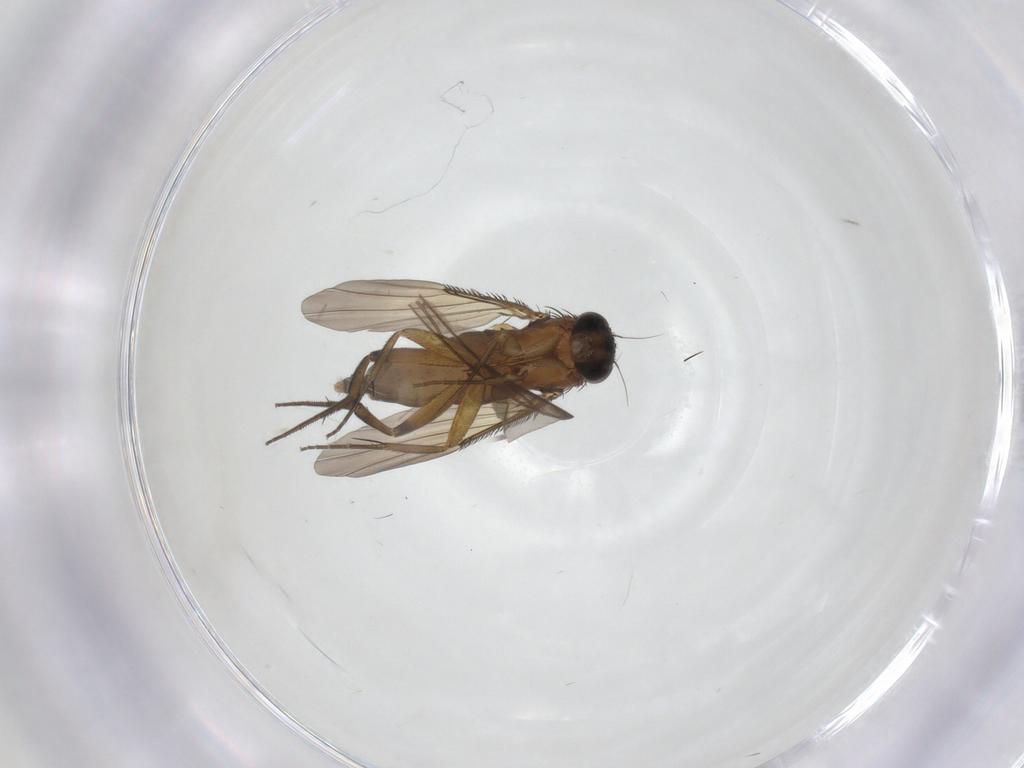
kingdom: Animalia
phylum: Arthropoda
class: Insecta
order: Diptera
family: Phoridae
